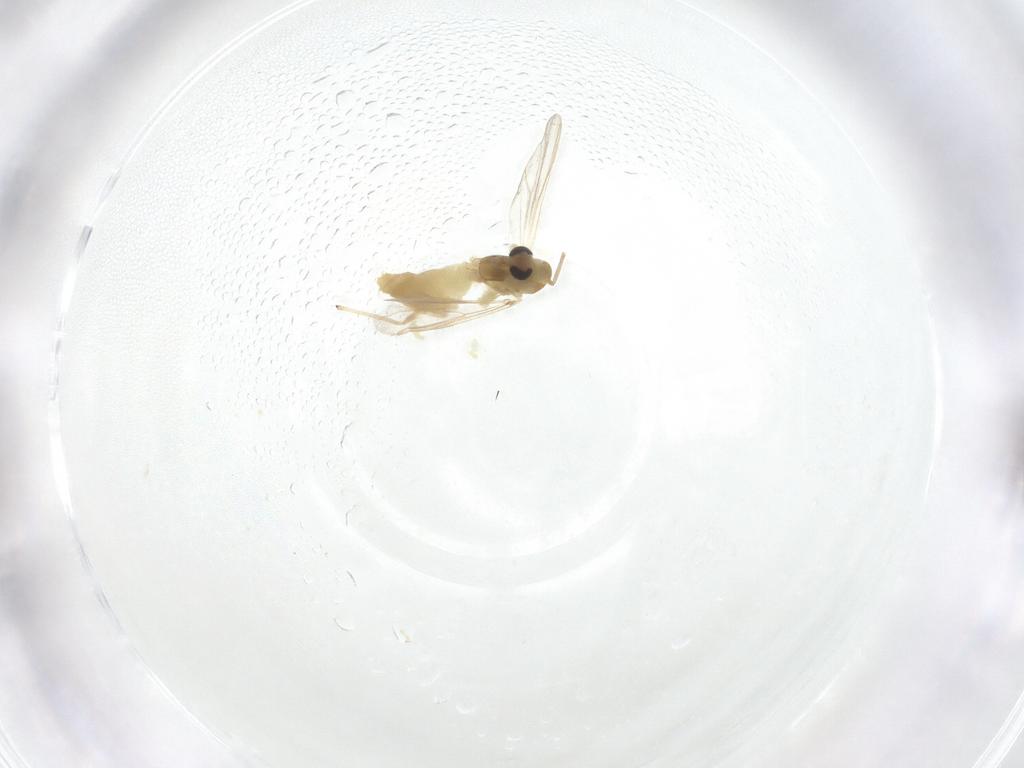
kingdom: Animalia
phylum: Arthropoda
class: Insecta
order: Diptera
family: Chironomidae
